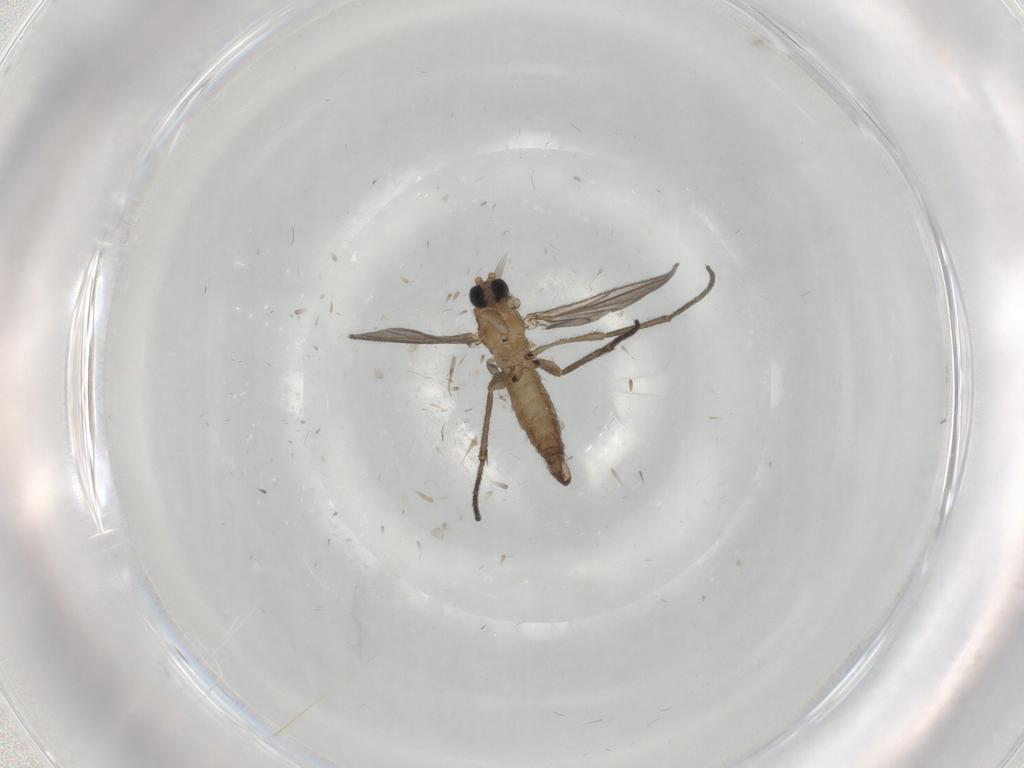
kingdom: Animalia
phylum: Arthropoda
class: Insecta
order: Diptera
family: Sciaridae
